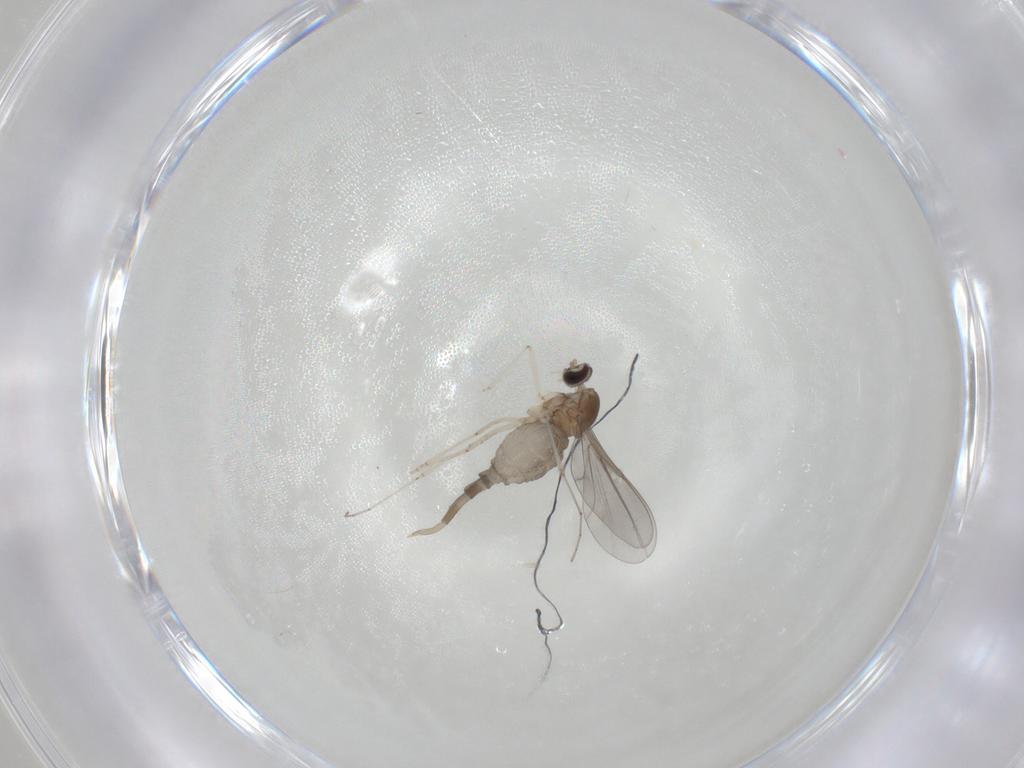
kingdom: Animalia
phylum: Arthropoda
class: Insecta
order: Diptera
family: Cecidomyiidae
